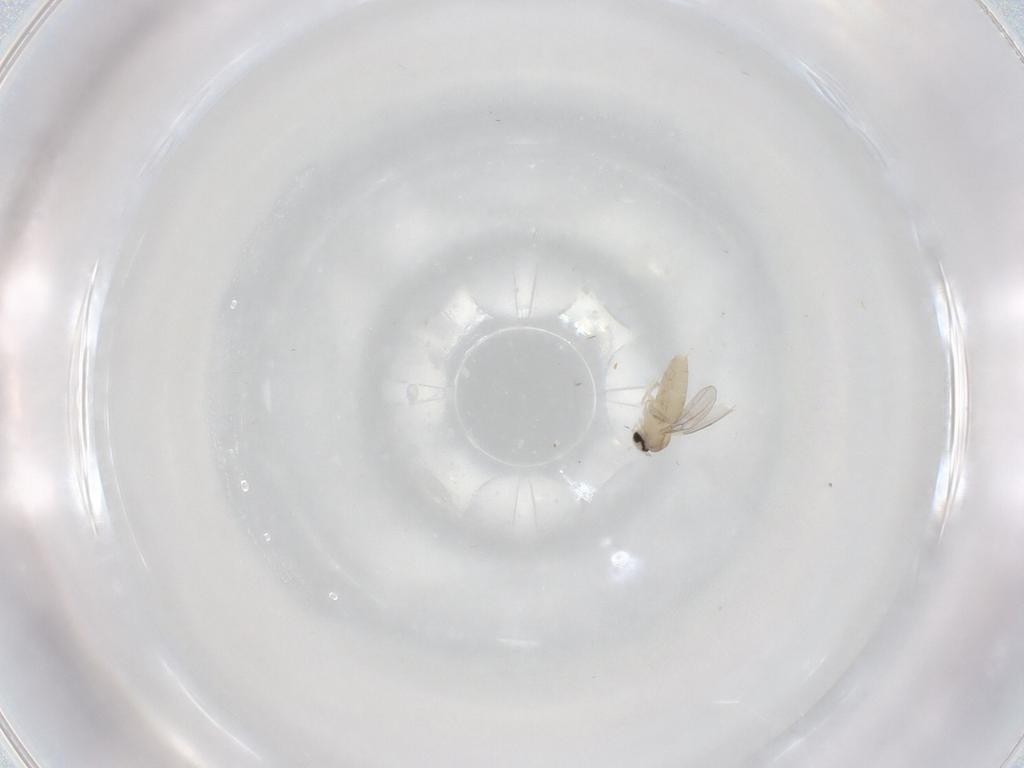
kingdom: Animalia
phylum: Arthropoda
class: Insecta
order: Diptera
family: Cecidomyiidae
